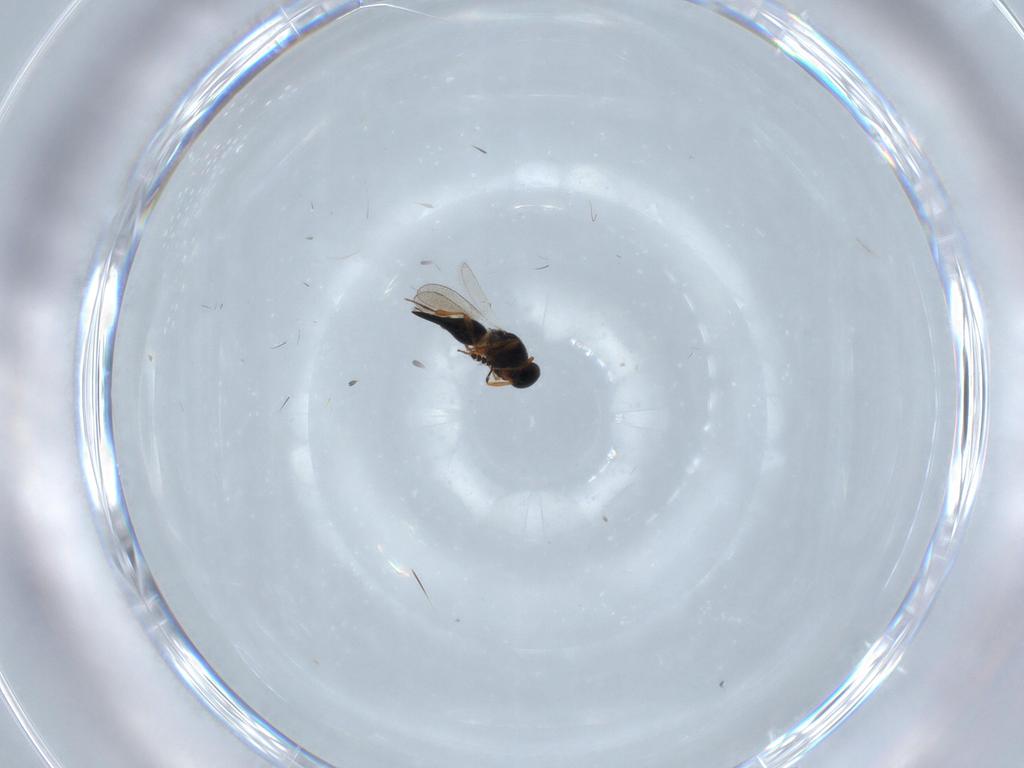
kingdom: Animalia
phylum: Arthropoda
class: Insecta
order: Hymenoptera
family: Platygastridae
